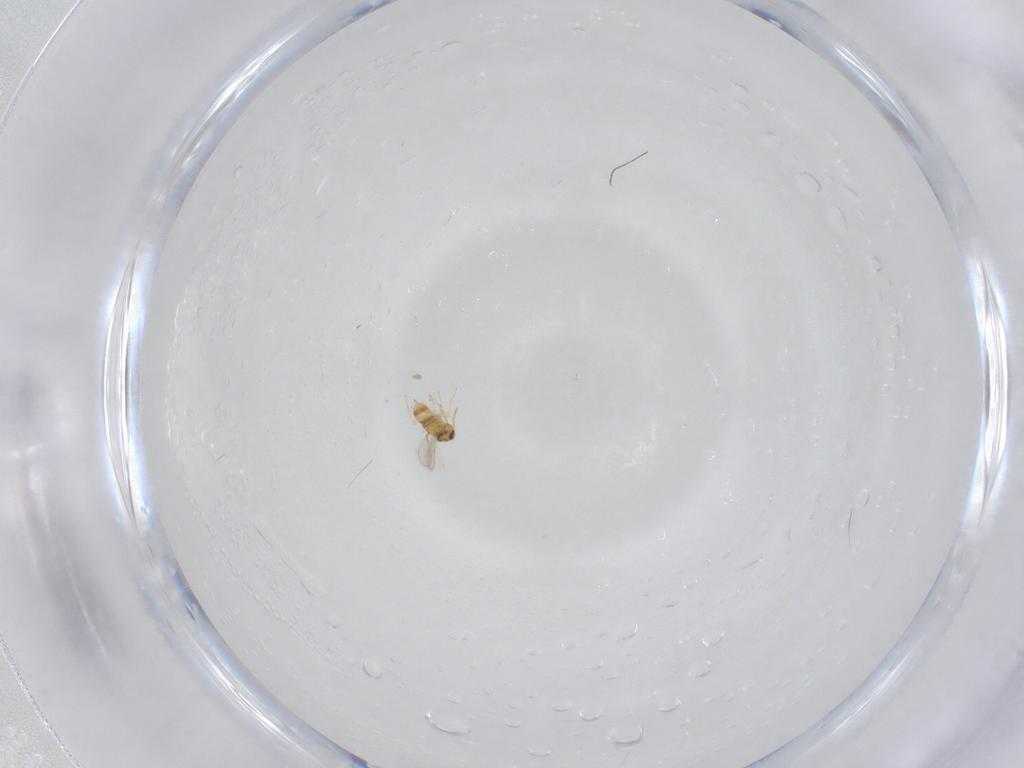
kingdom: Animalia
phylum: Arthropoda
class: Insecta
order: Hymenoptera
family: Aphelinidae
